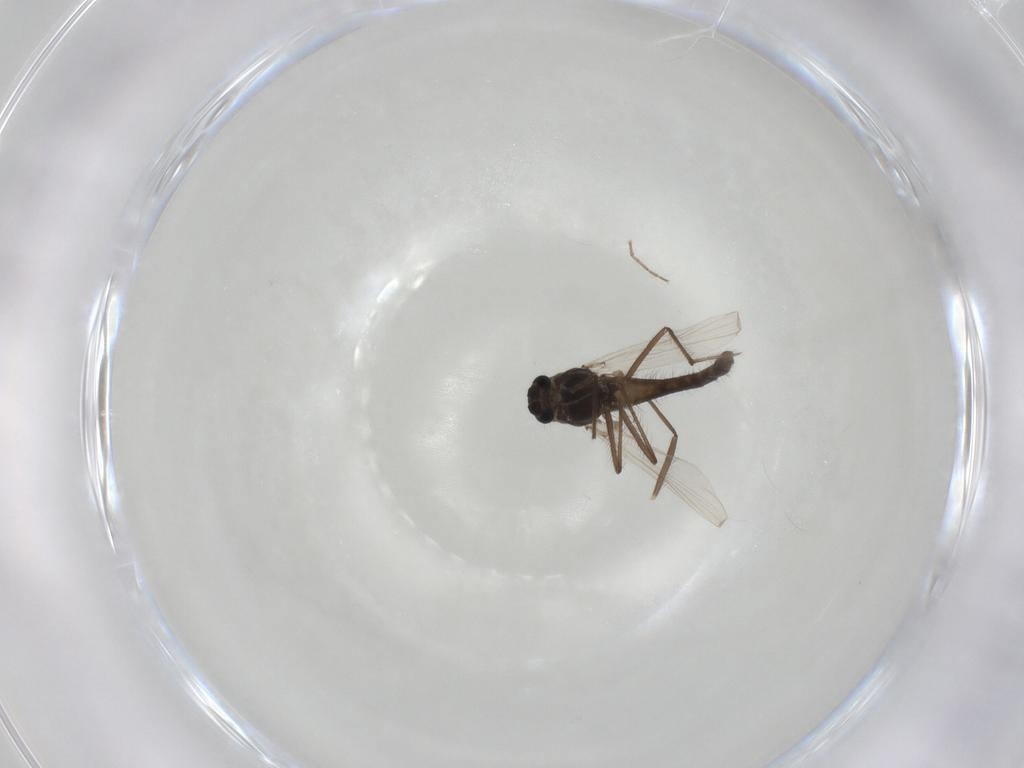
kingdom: Animalia
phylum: Arthropoda
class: Insecta
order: Diptera
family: Chironomidae
